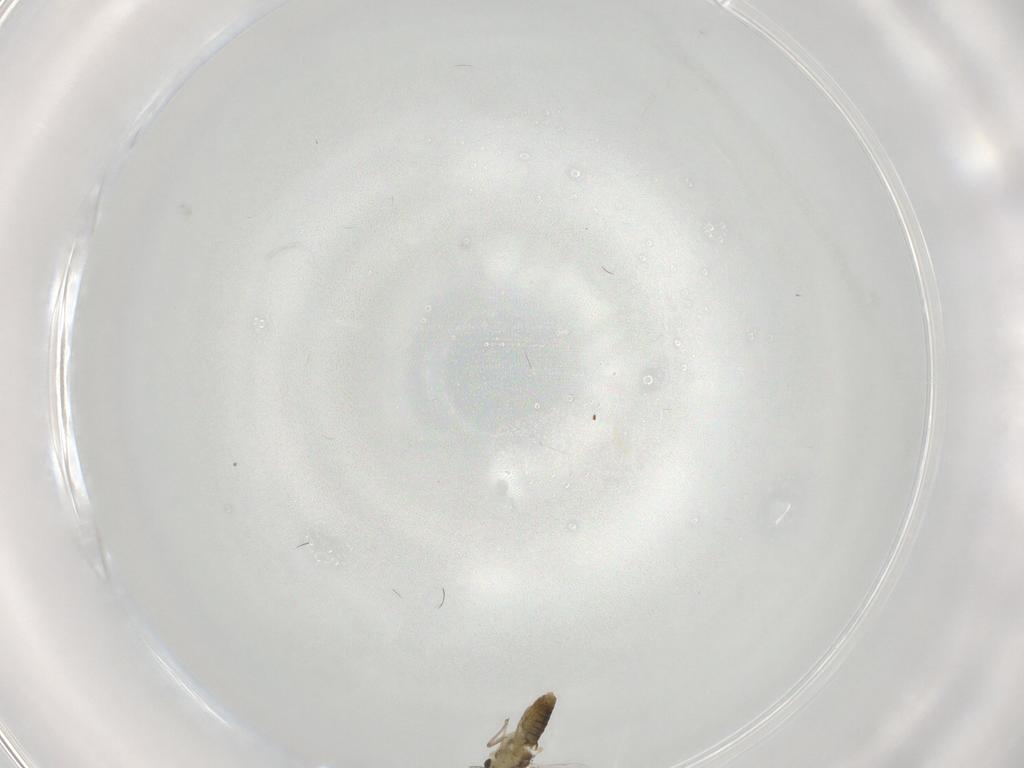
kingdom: Animalia
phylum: Arthropoda
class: Insecta
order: Diptera
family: Chironomidae
